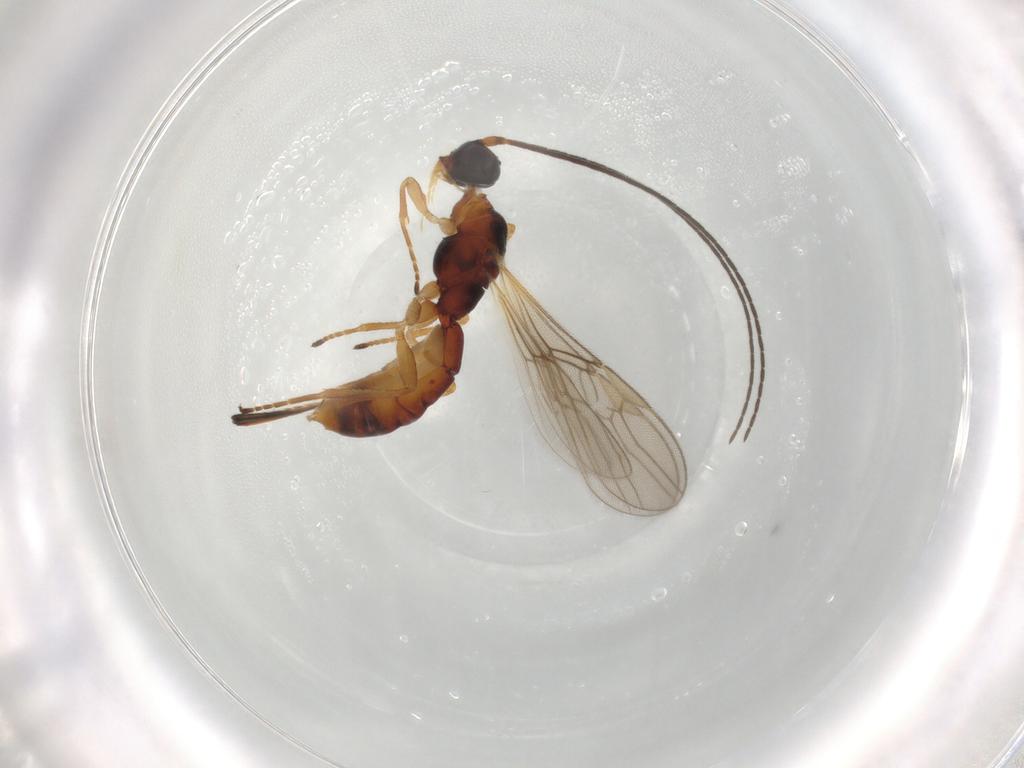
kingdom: Animalia
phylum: Arthropoda
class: Insecta
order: Hymenoptera
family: Braconidae
